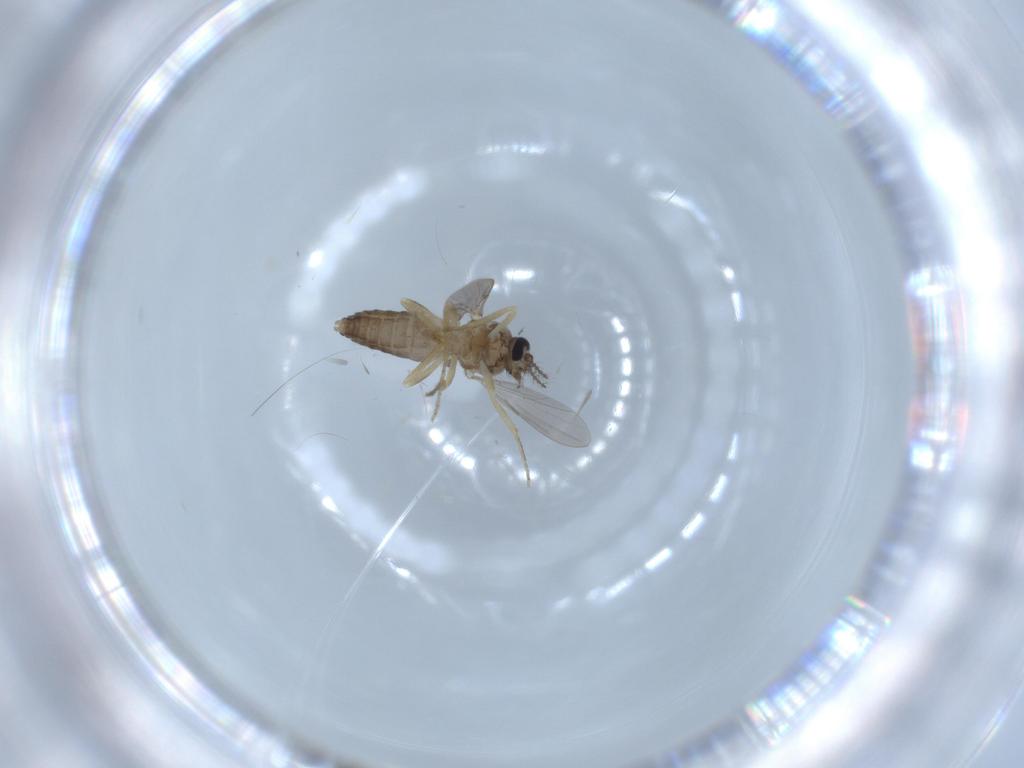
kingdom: Animalia
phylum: Arthropoda
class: Insecta
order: Diptera
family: Ceratopogonidae
